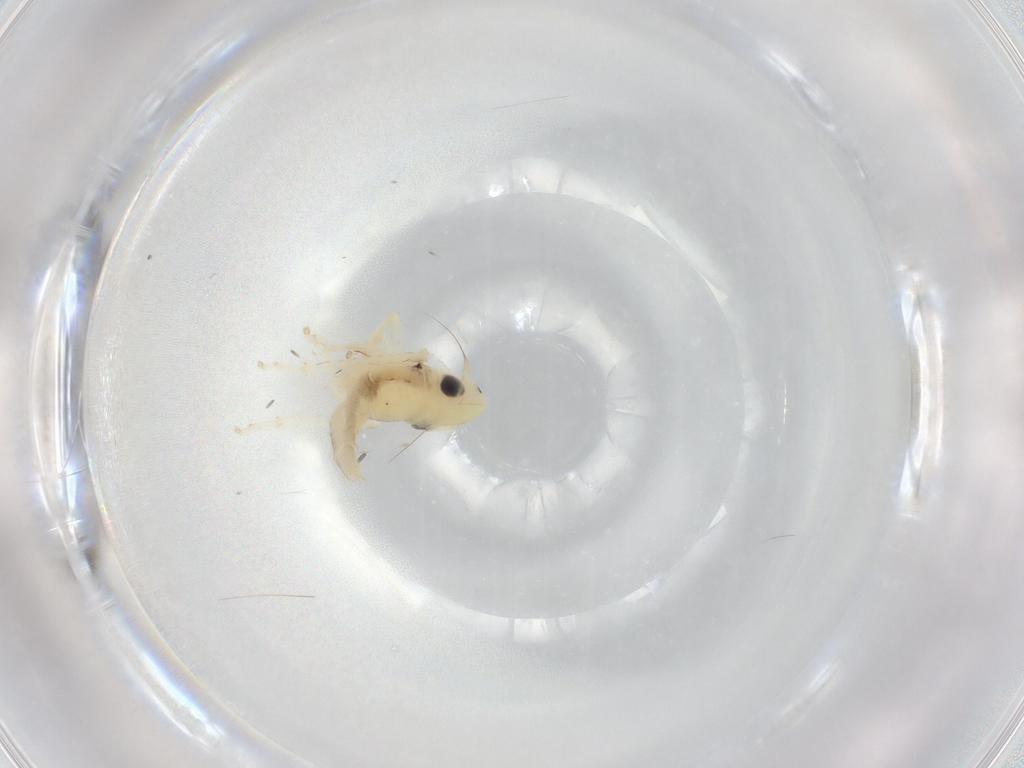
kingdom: Animalia
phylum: Arthropoda
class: Insecta
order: Hemiptera
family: Cicadellidae
